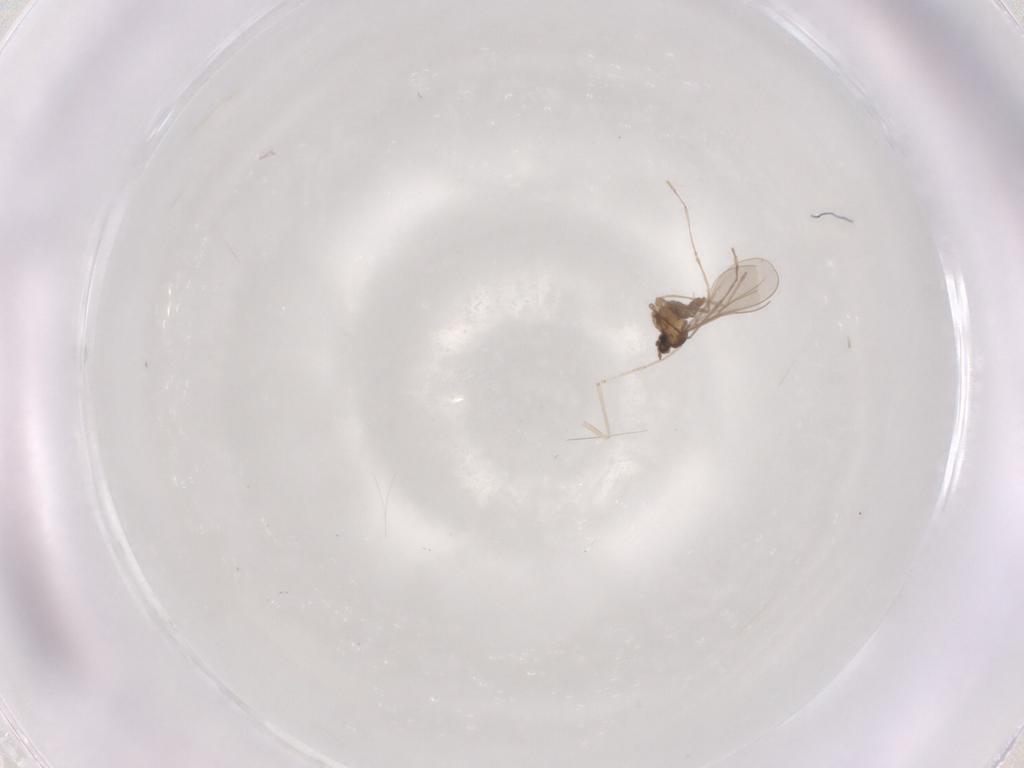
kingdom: Animalia
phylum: Arthropoda
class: Insecta
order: Diptera
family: Cecidomyiidae
